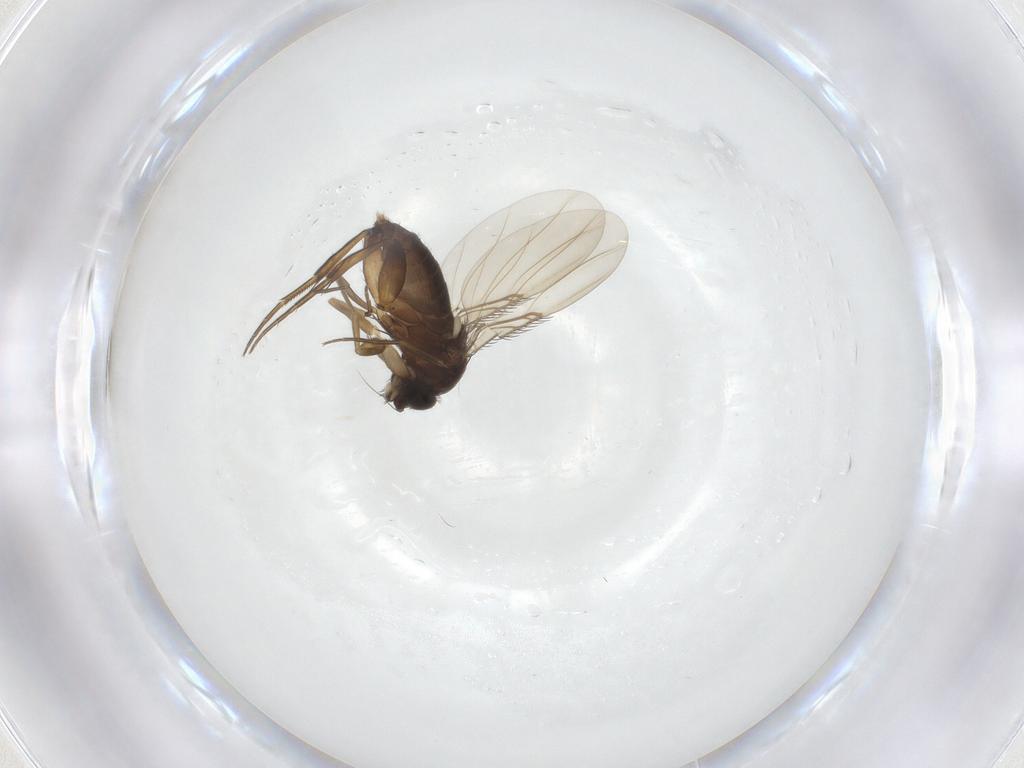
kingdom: Animalia
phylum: Arthropoda
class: Insecta
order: Diptera
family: Phoridae
